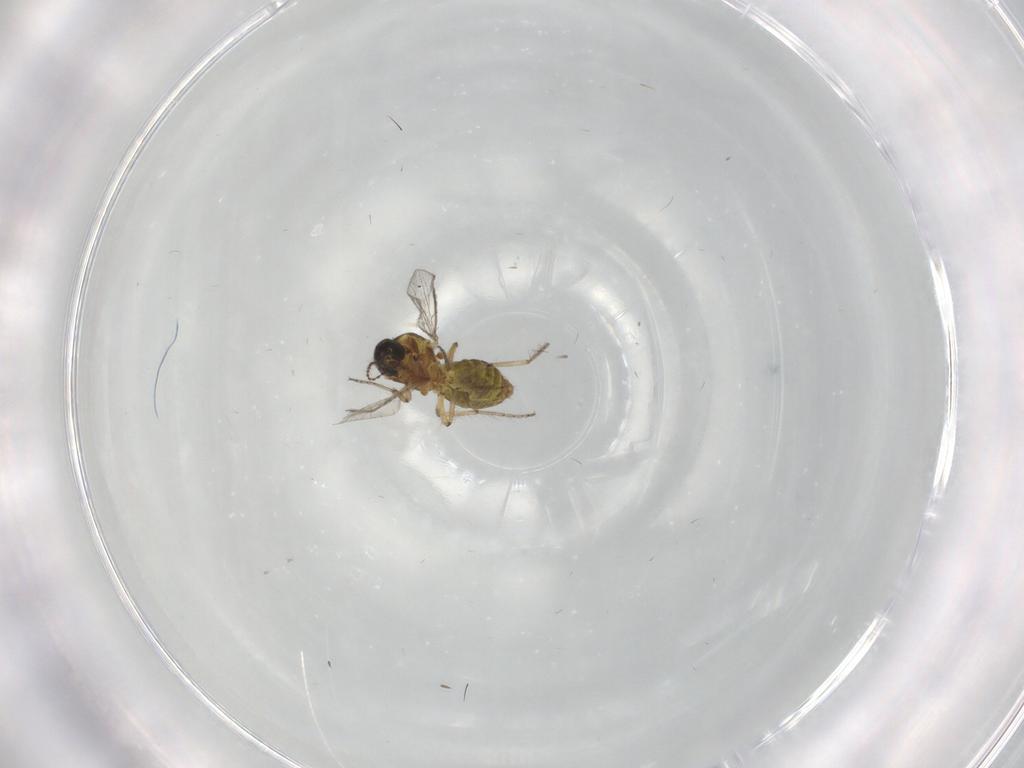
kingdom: Animalia
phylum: Arthropoda
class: Insecta
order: Diptera
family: Ceratopogonidae
